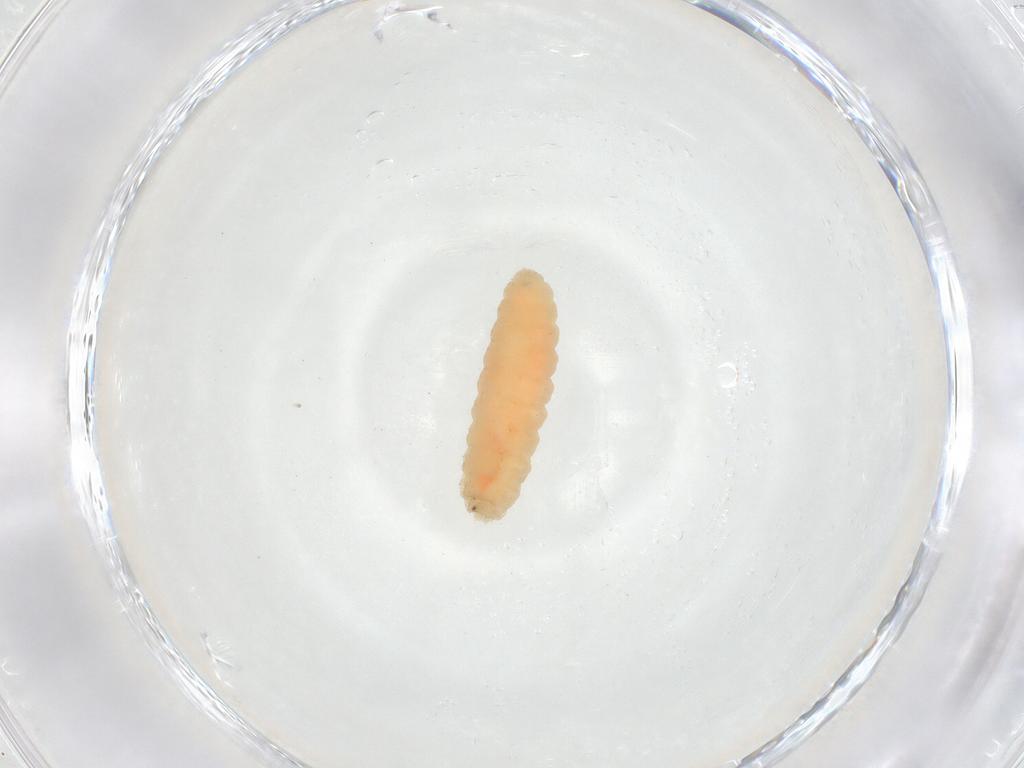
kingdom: Animalia
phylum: Arthropoda
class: Insecta
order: Diptera
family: Cecidomyiidae
